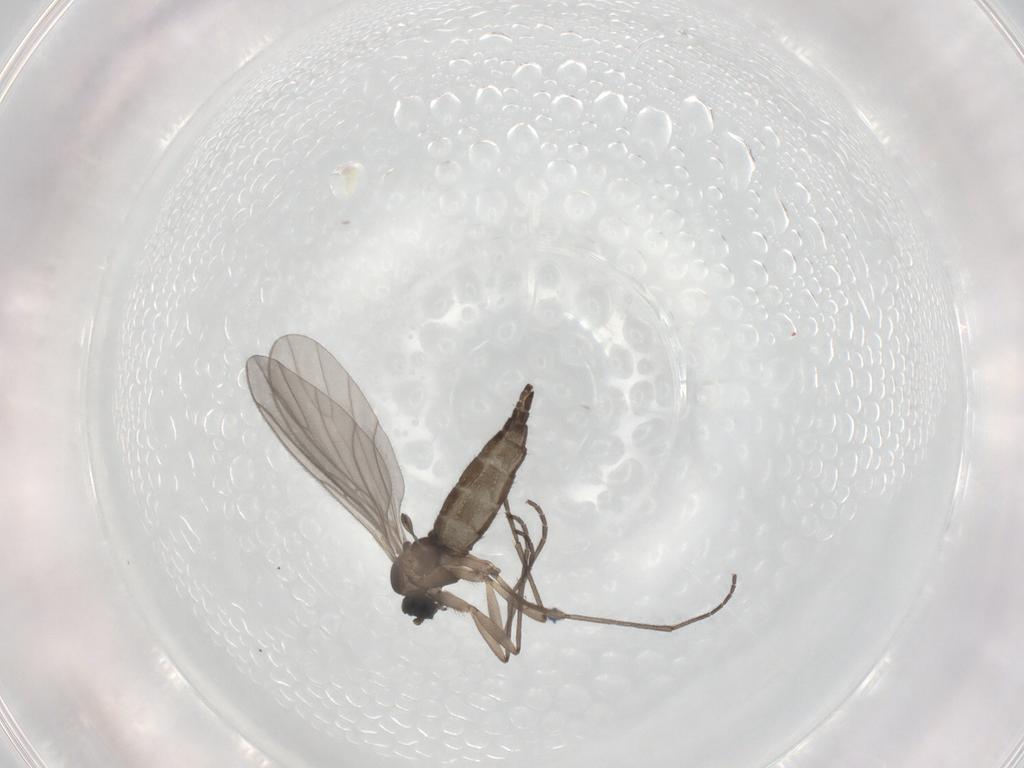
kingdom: Animalia
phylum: Arthropoda
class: Insecta
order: Diptera
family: Sciaridae
